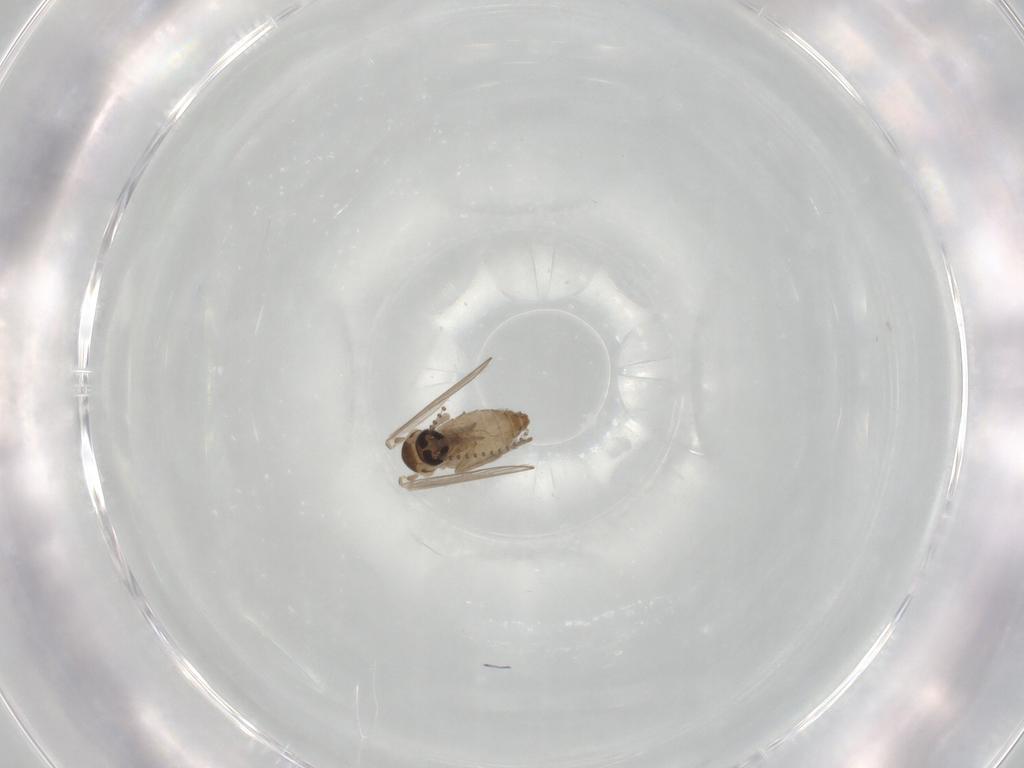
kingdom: Animalia
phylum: Arthropoda
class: Insecta
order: Diptera
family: Psychodidae
